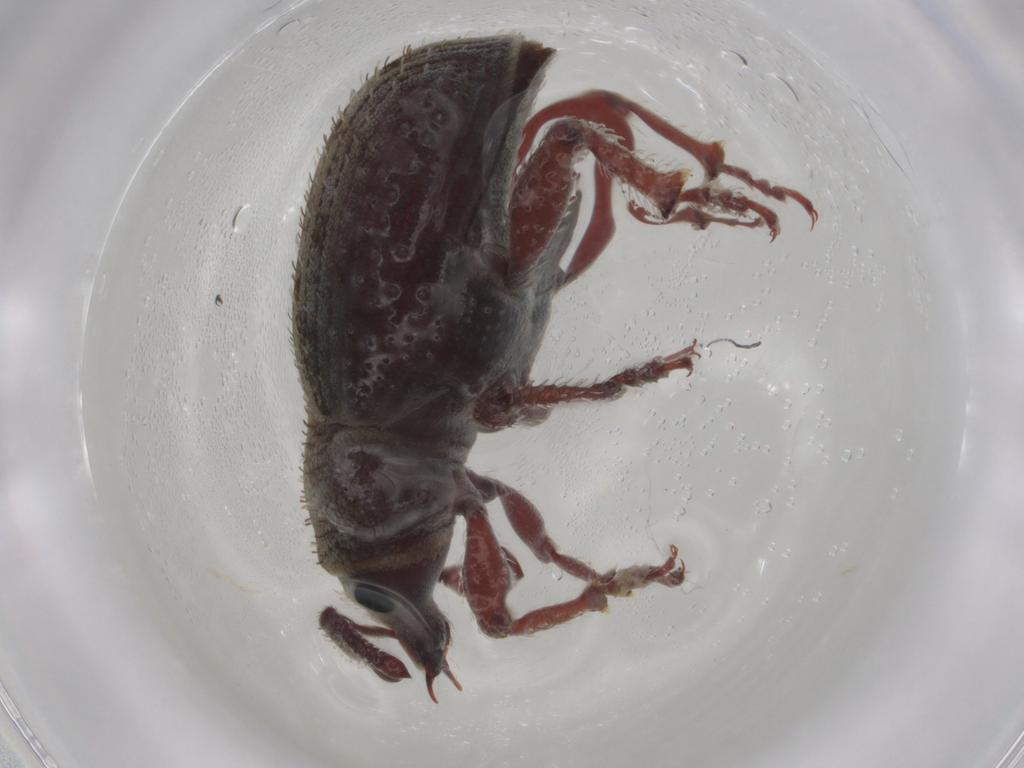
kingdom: Animalia
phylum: Arthropoda
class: Insecta
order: Coleoptera
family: Curculionidae
